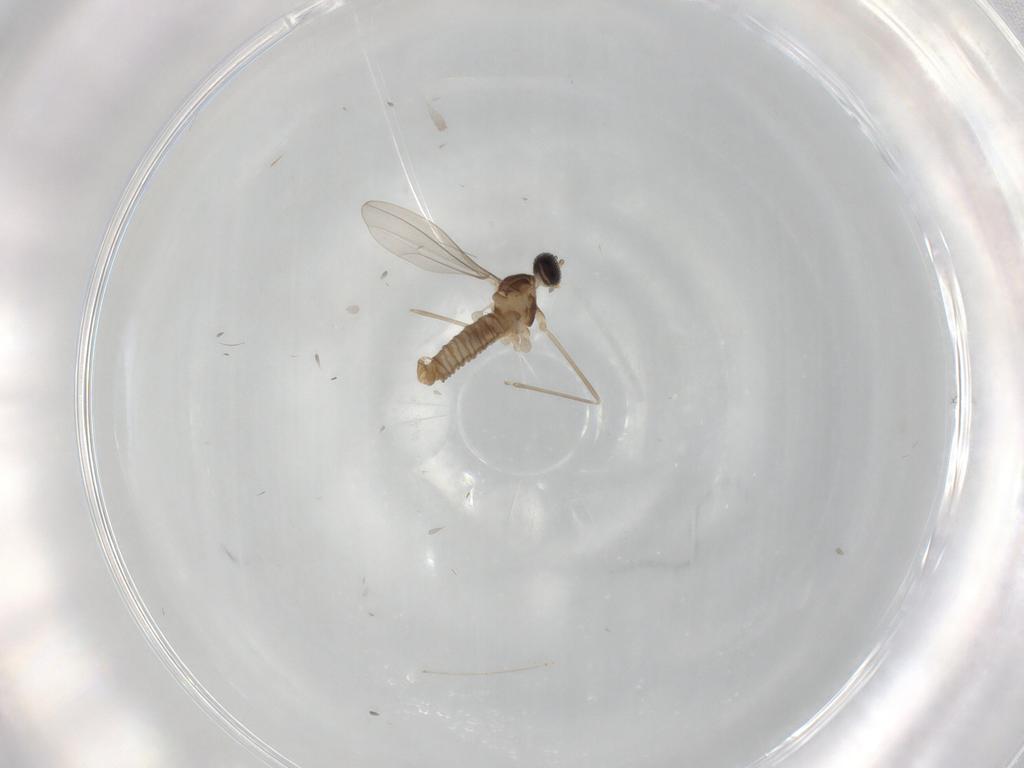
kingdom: Animalia
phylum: Arthropoda
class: Insecta
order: Diptera
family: Cecidomyiidae
